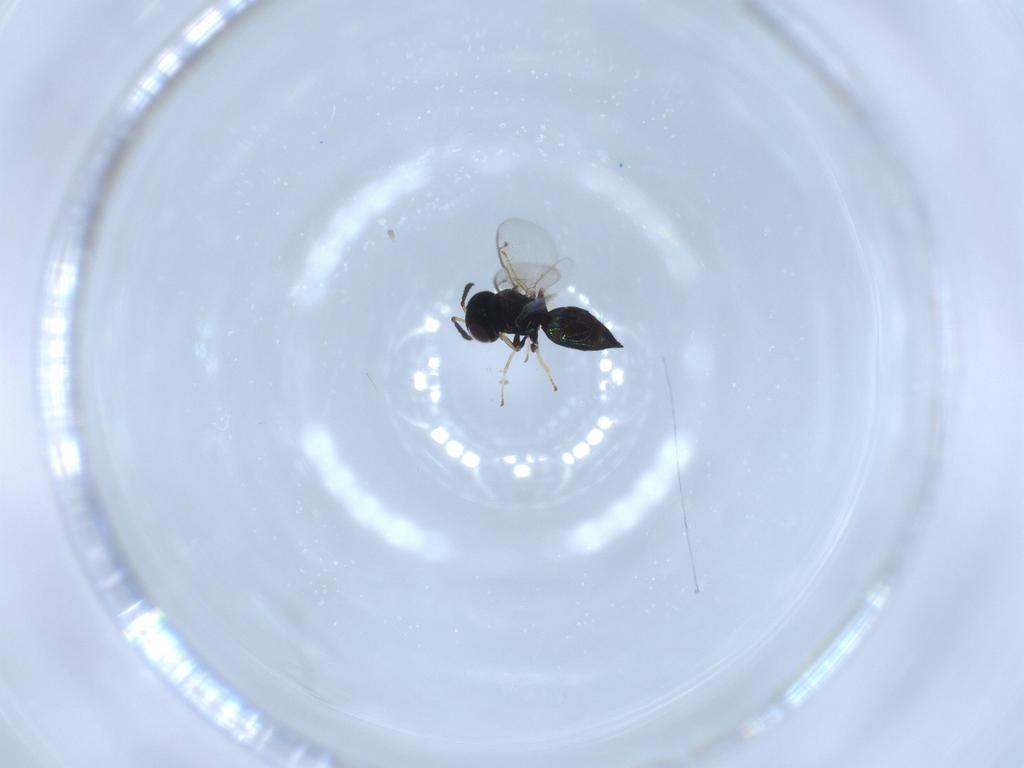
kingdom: Animalia
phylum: Arthropoda
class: Insecta
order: Hymenoptera
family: Pteromalidae
